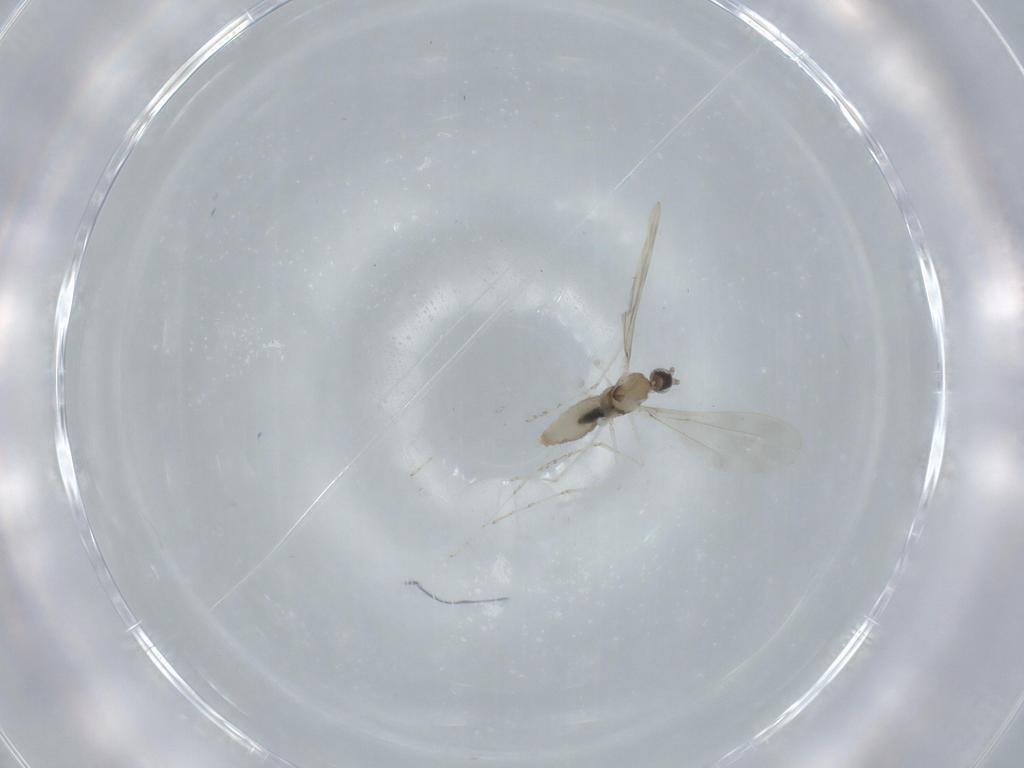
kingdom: Animalia
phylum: Arthropoda
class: Insecta
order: Diptera
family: Cecidomyiidae
